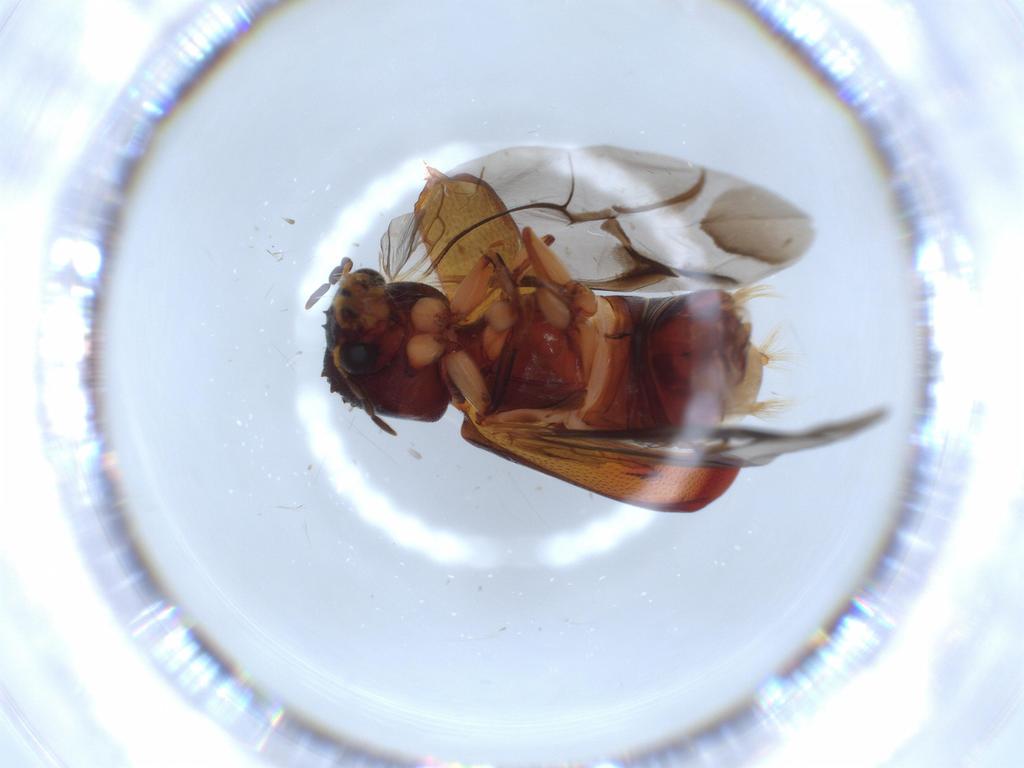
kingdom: Animalia
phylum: Arthropoda
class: Insecta
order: Coleoptera
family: Bostrichidae
